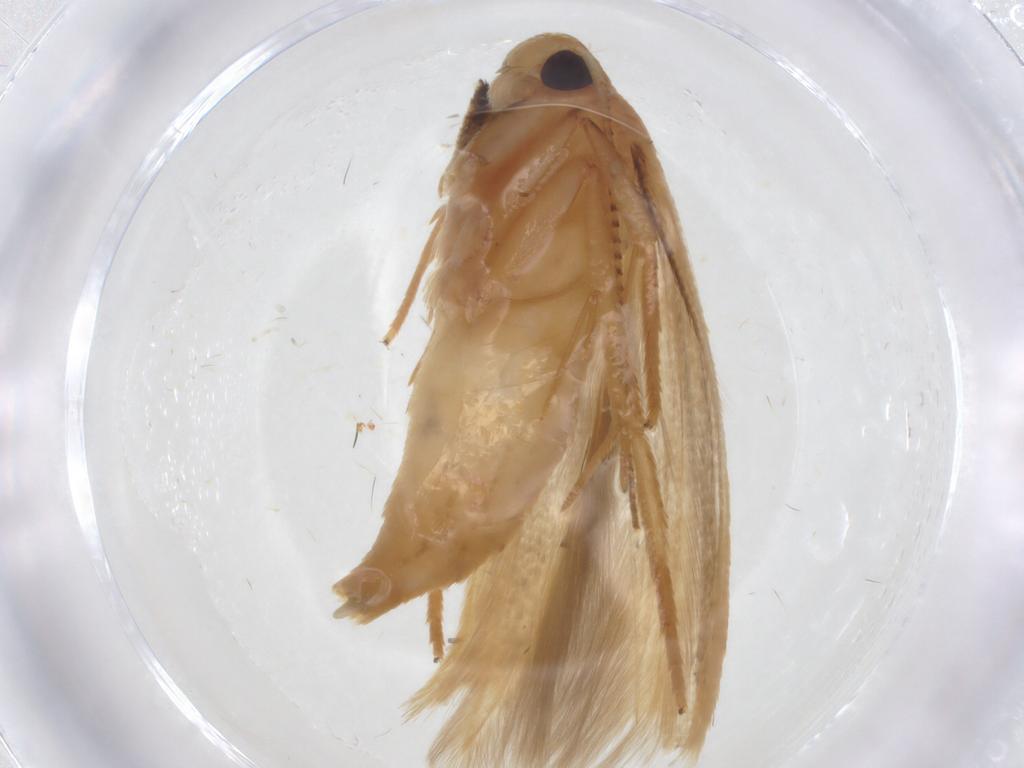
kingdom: Animalia
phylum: Arthropoda
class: Insecta
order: Lepidoptera
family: Stathmopodidae
